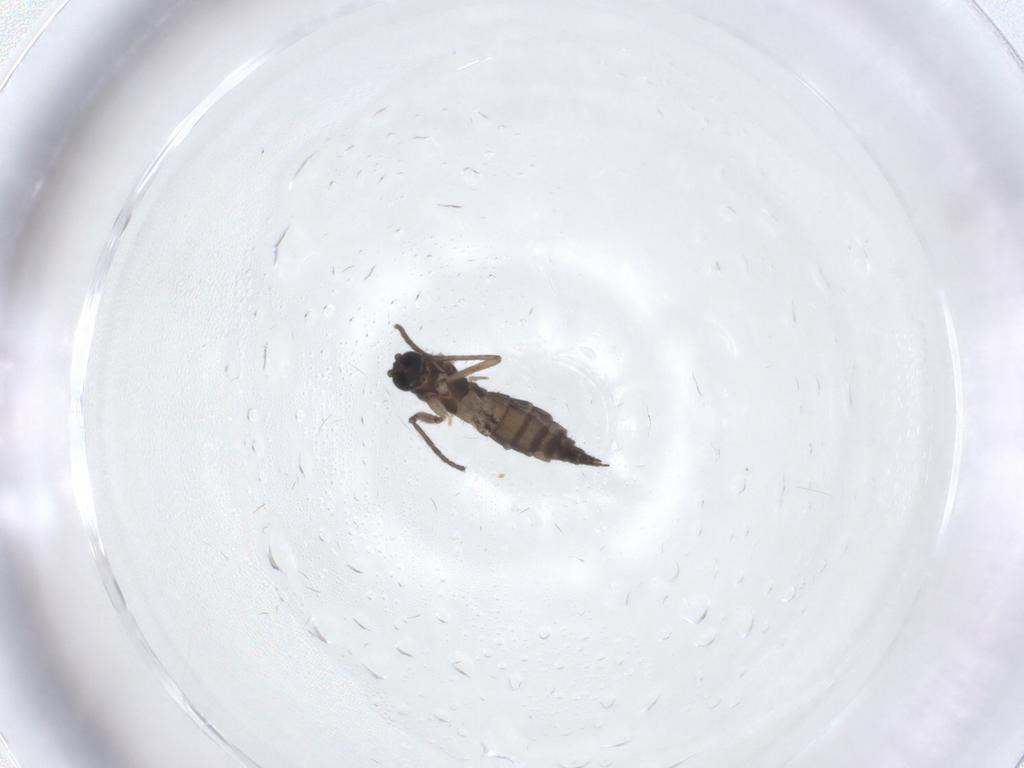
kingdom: Animalia
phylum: Arthropoda
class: Insecta
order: Diptera
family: Sciaridae
